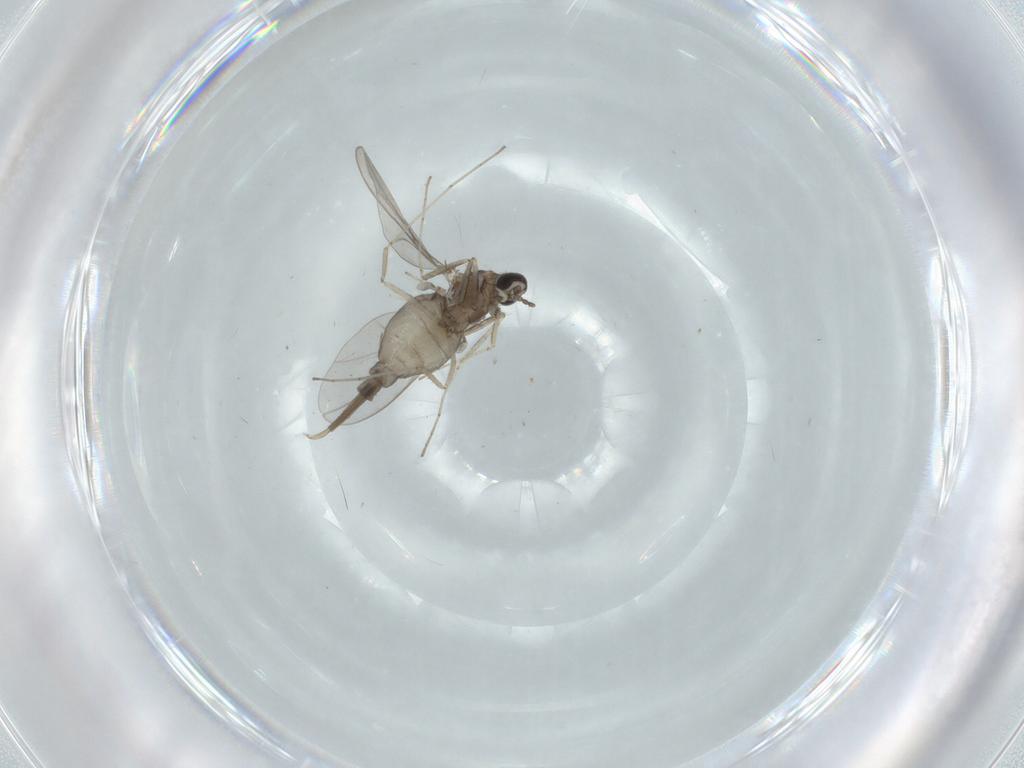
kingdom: Animalia
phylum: Arthropoda
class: Insecta
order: Diptera
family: Cecidomyiidae
